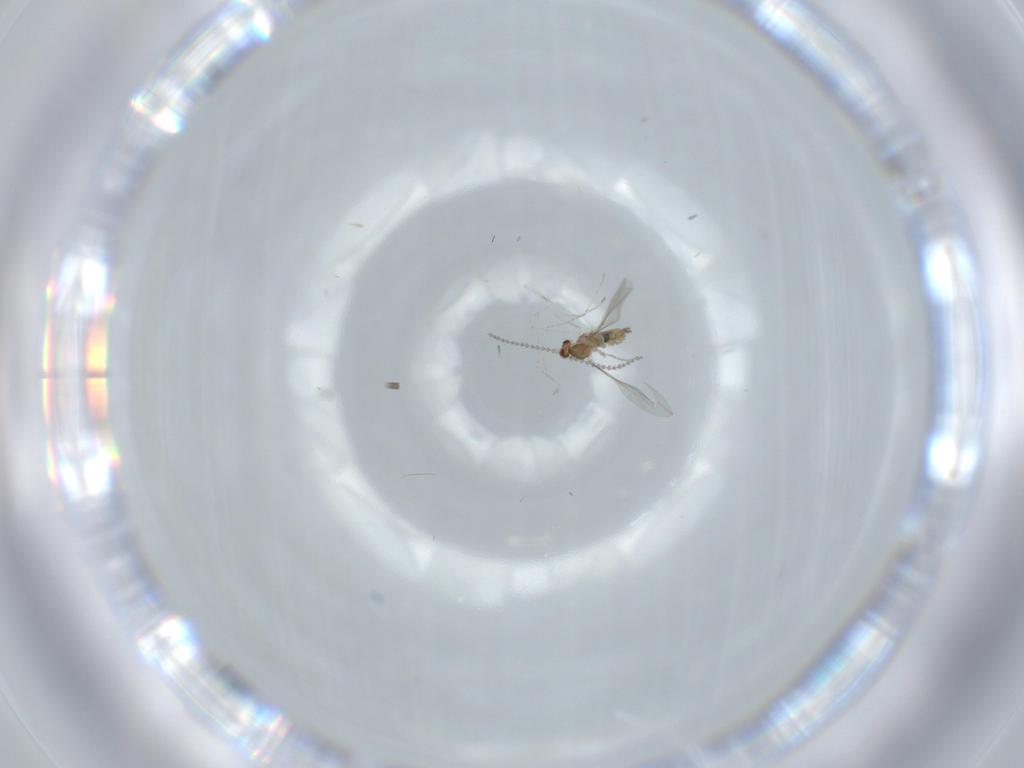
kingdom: Animalia
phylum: Arthropoda
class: Insecta
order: Diptera
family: Cecidomyiidae
